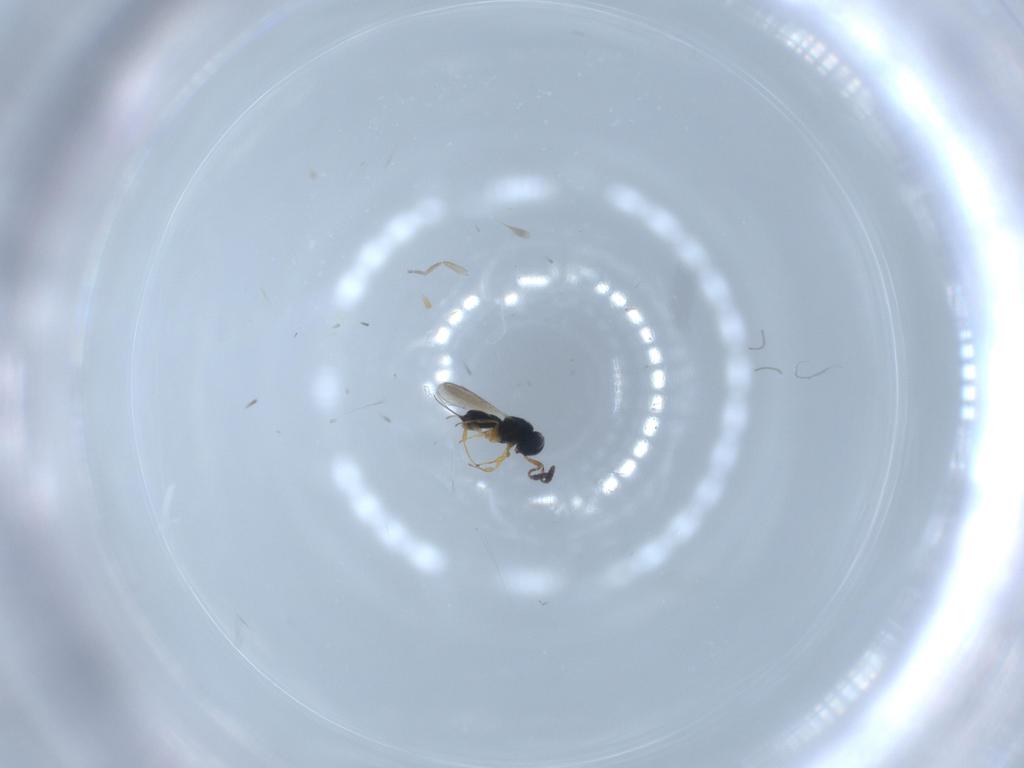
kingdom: Animalia
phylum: Arthropoda
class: Insecta
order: Hymenoptera
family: Scelionidae
